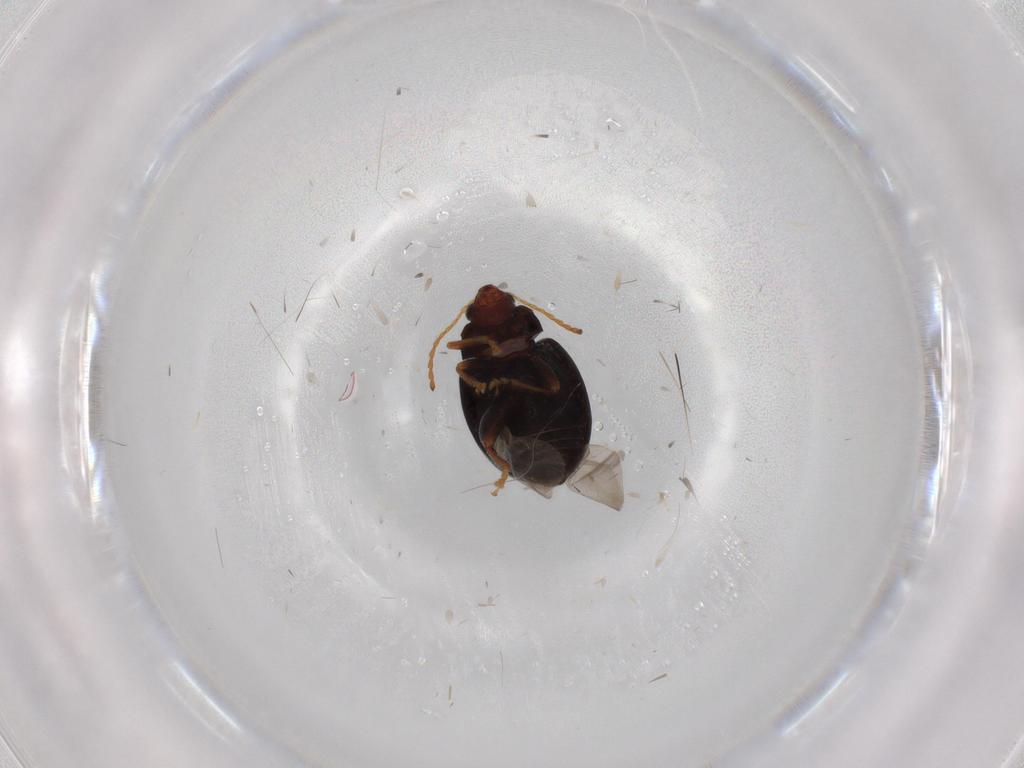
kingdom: Animalia
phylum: Arthropoda
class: Insecta
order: Coleoptera
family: Chrysomelidae
